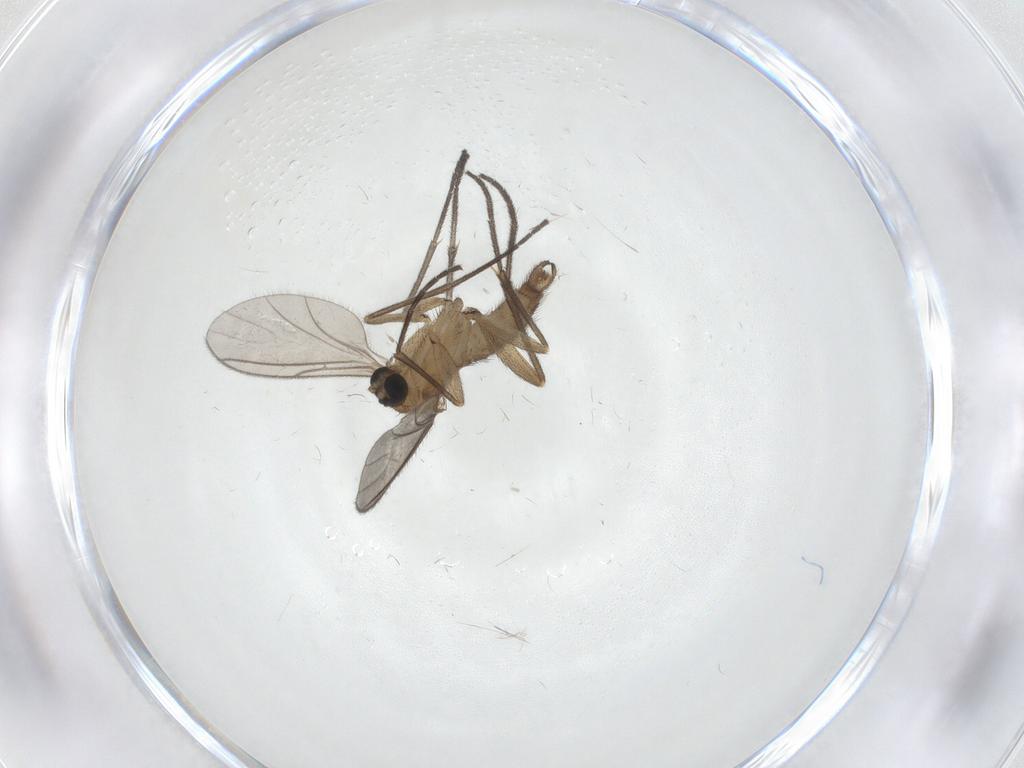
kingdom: Animalia
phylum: Arthropoda
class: Insecta
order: Diptera
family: Sciaridae
